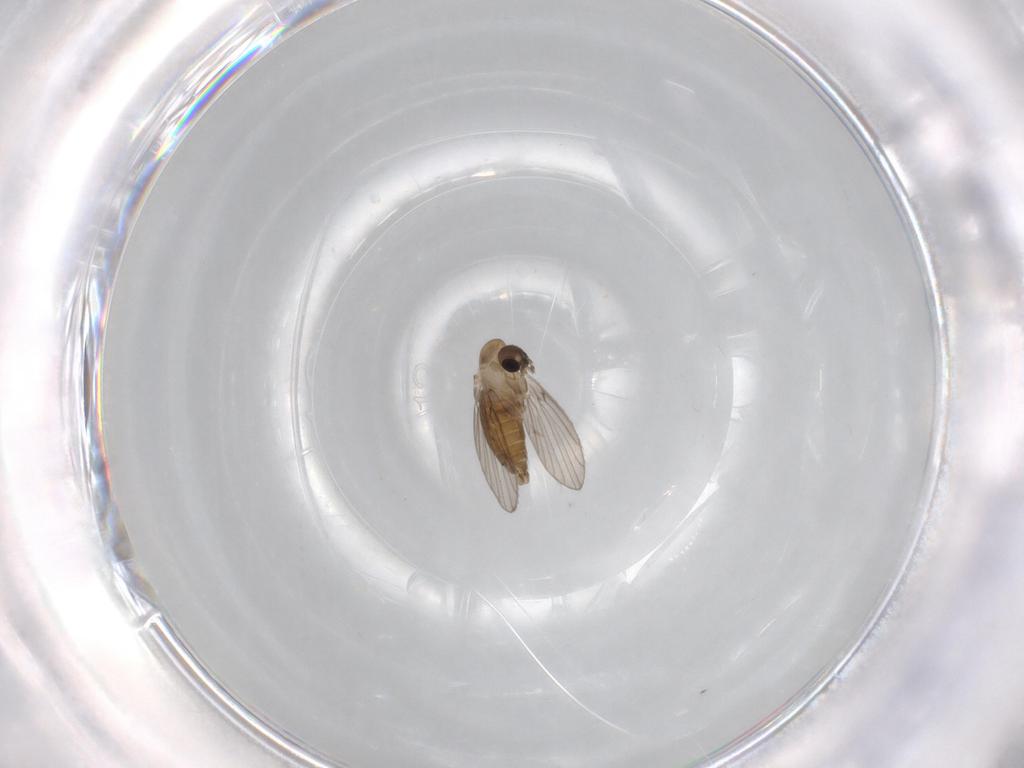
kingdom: Animalia
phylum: Arthropoda
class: Insecta
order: Diptera
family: Psychodidae
